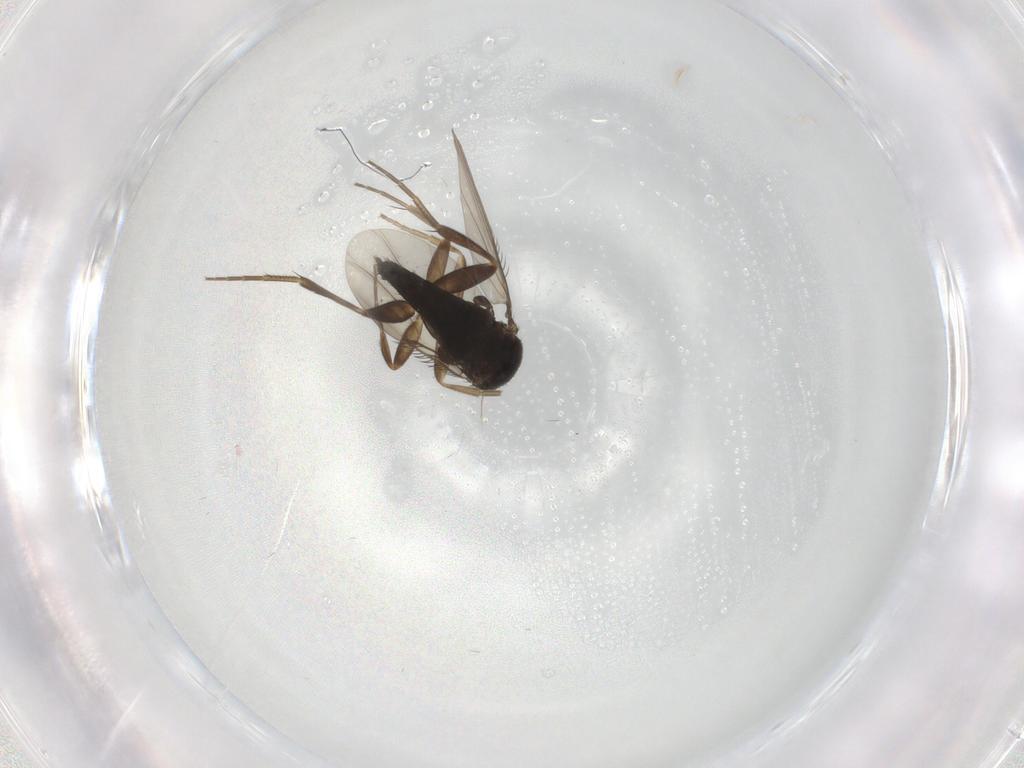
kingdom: Animalia
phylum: Arthropoda
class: Insecta
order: Diptera
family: Phoridae
